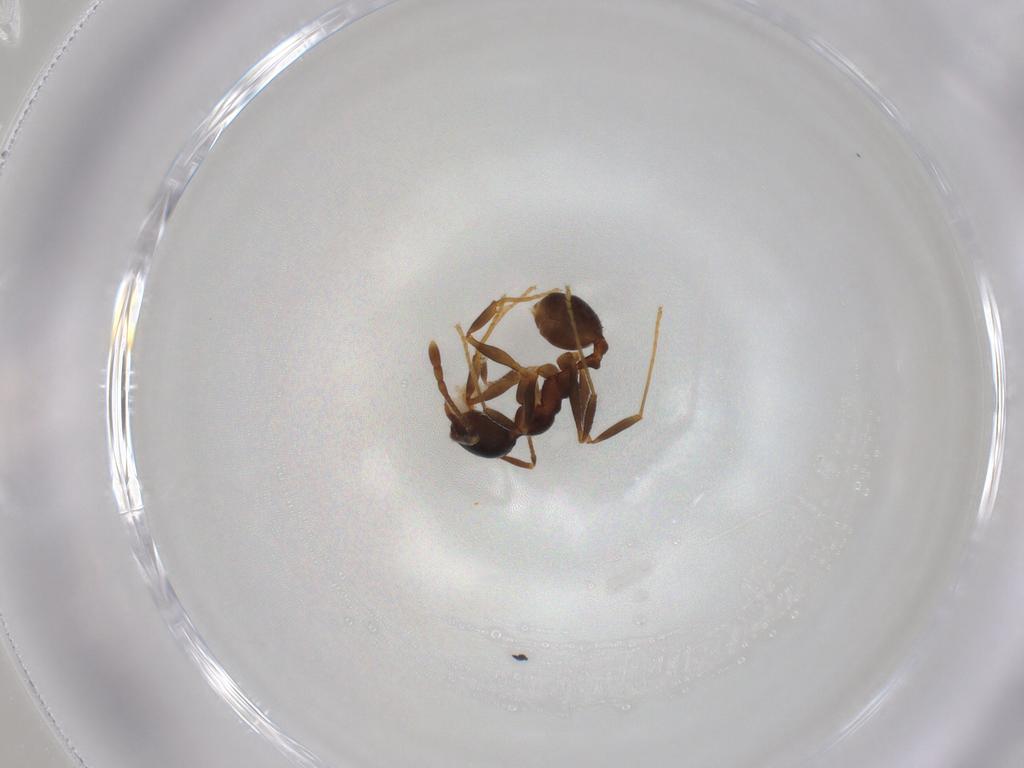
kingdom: Animalia
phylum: Arthropoda
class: Insecta
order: Hymenoptera
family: Formicidae
